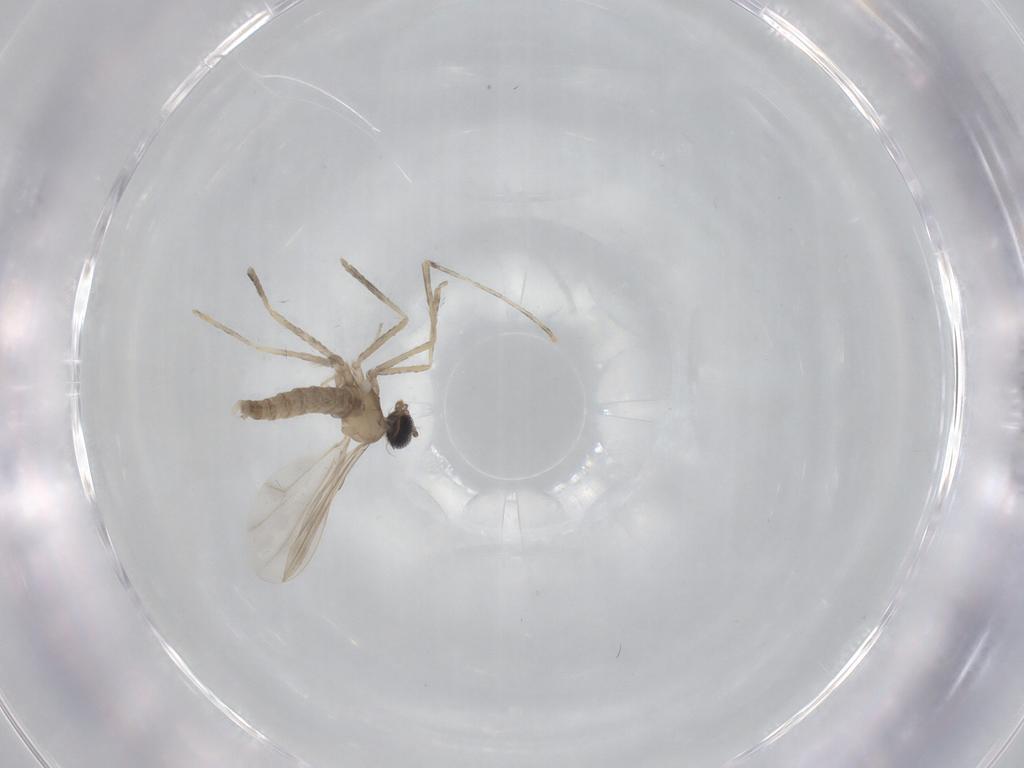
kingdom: Animalia
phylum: Arthropoda
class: Insecta
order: Diptera
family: Cecidomyiidae
